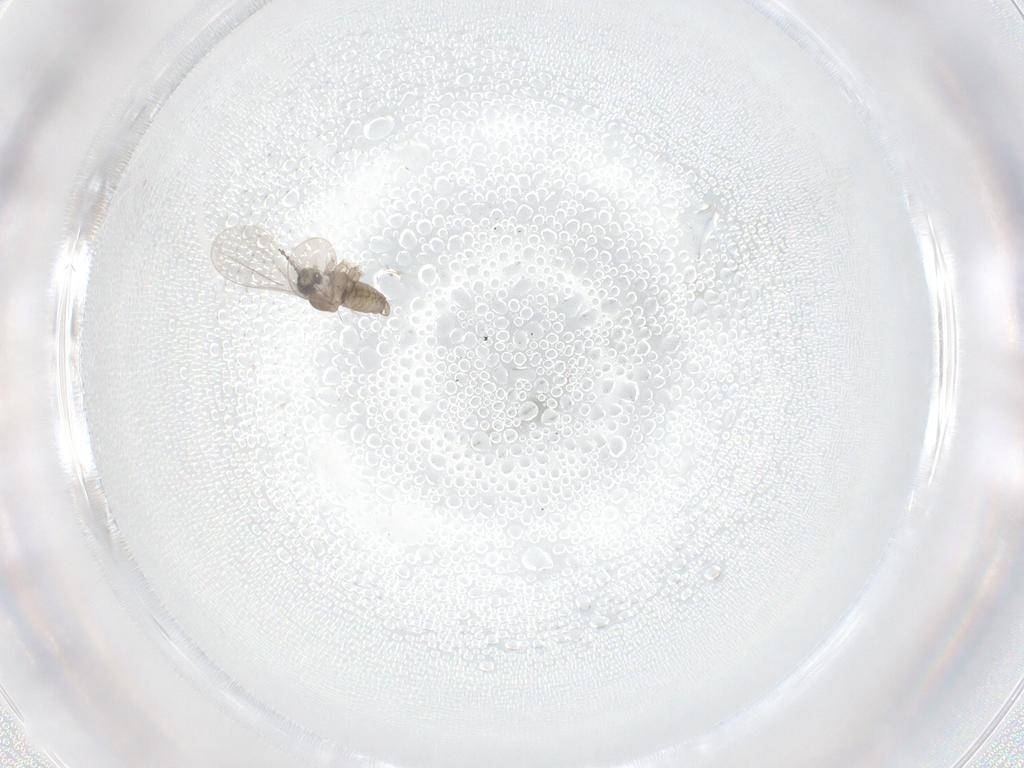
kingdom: Animalia
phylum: Arthropoda
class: Insecta
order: Diptera
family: Cecidomyiidae
